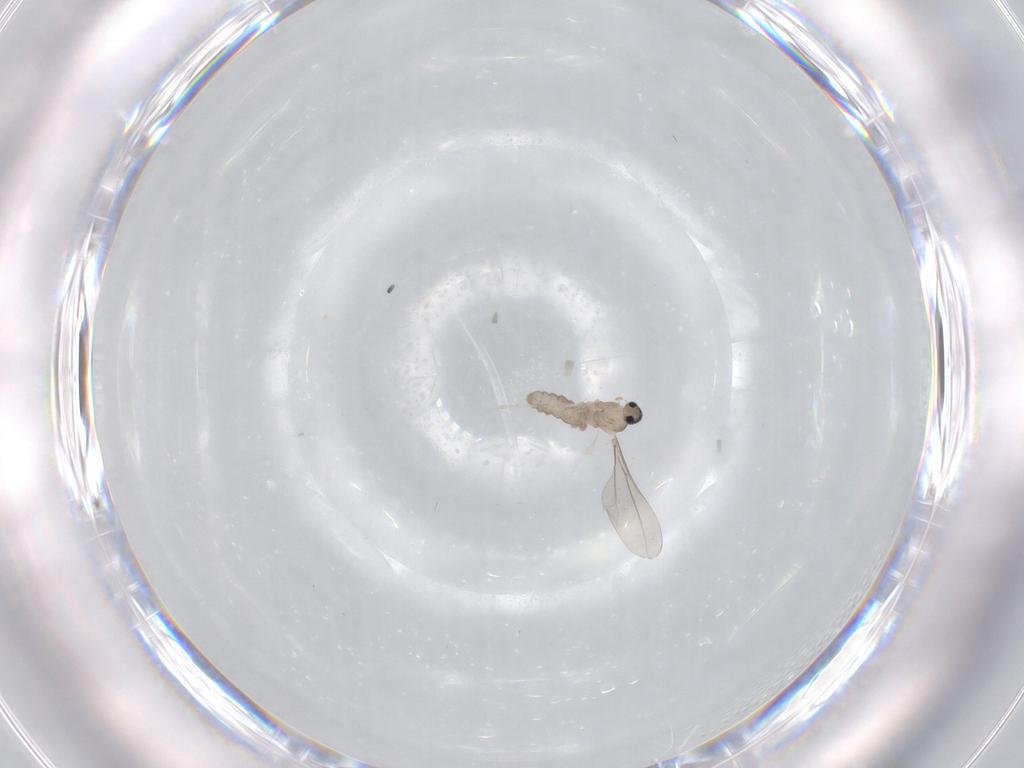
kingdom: Animalia
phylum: Arthropoda
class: Insecta
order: Diptera
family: Cecidomyiidae
